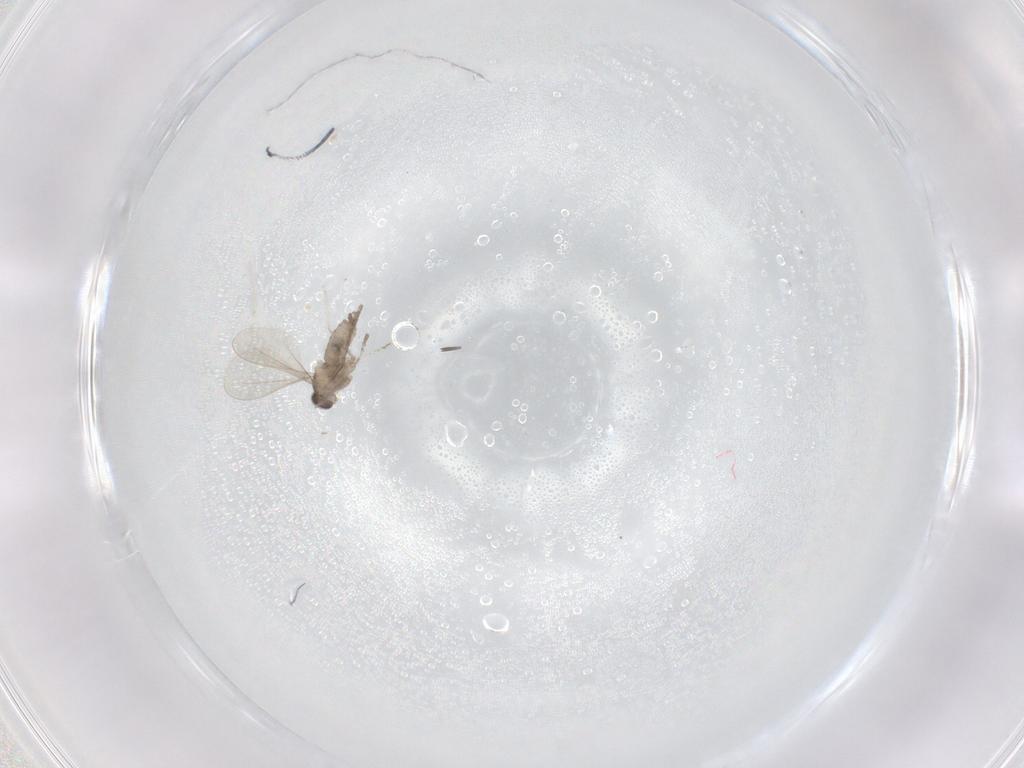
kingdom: Animalia
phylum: Arthropoda
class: Insecta
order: Diptera
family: Cecidomyiidae
